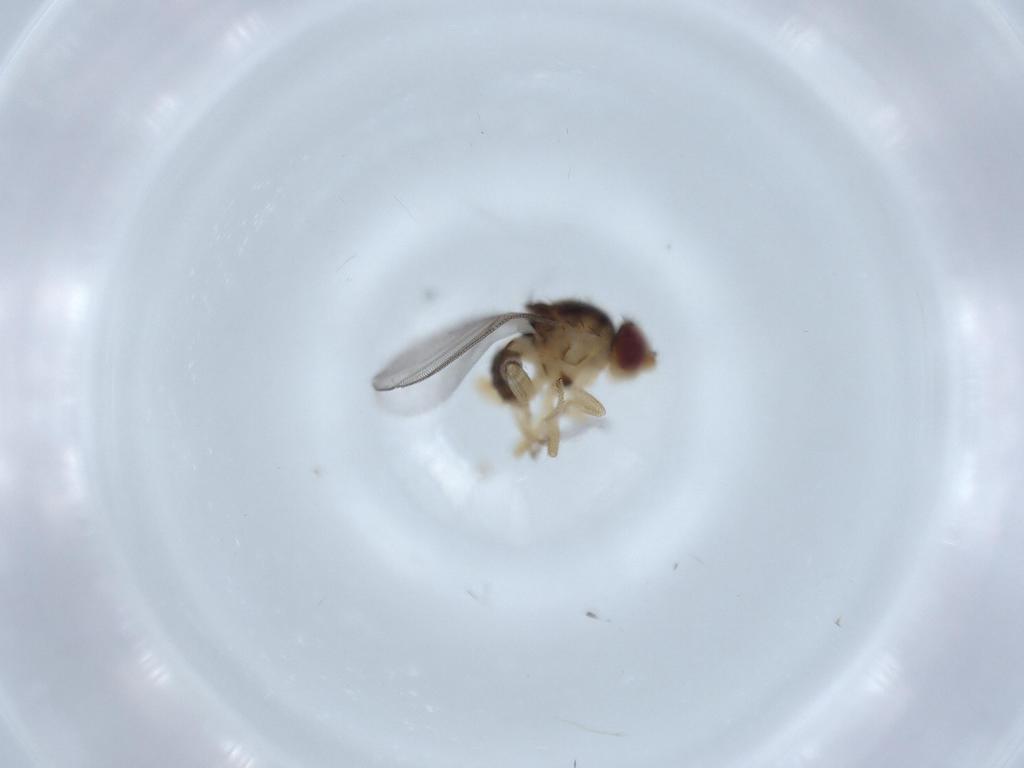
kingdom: Animalia
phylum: Arthropoda
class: Insecta
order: Diptera
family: Chloropidae
